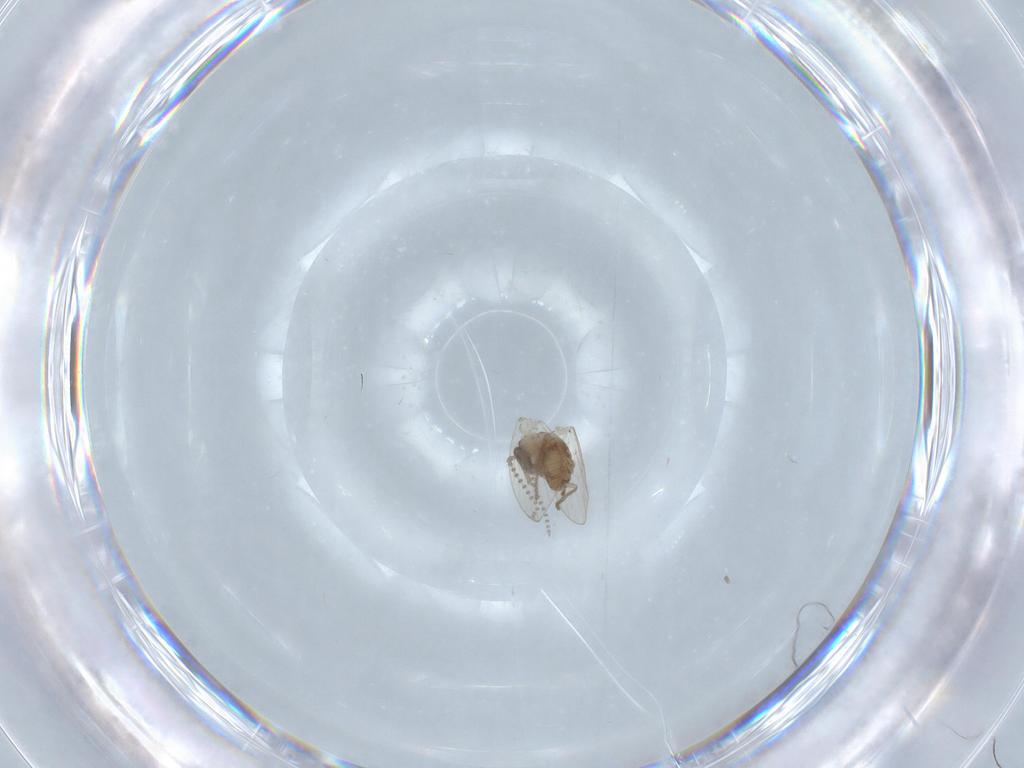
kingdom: Animalia
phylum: Arthropoda
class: Insecta
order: Diptera
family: Psychodidae
